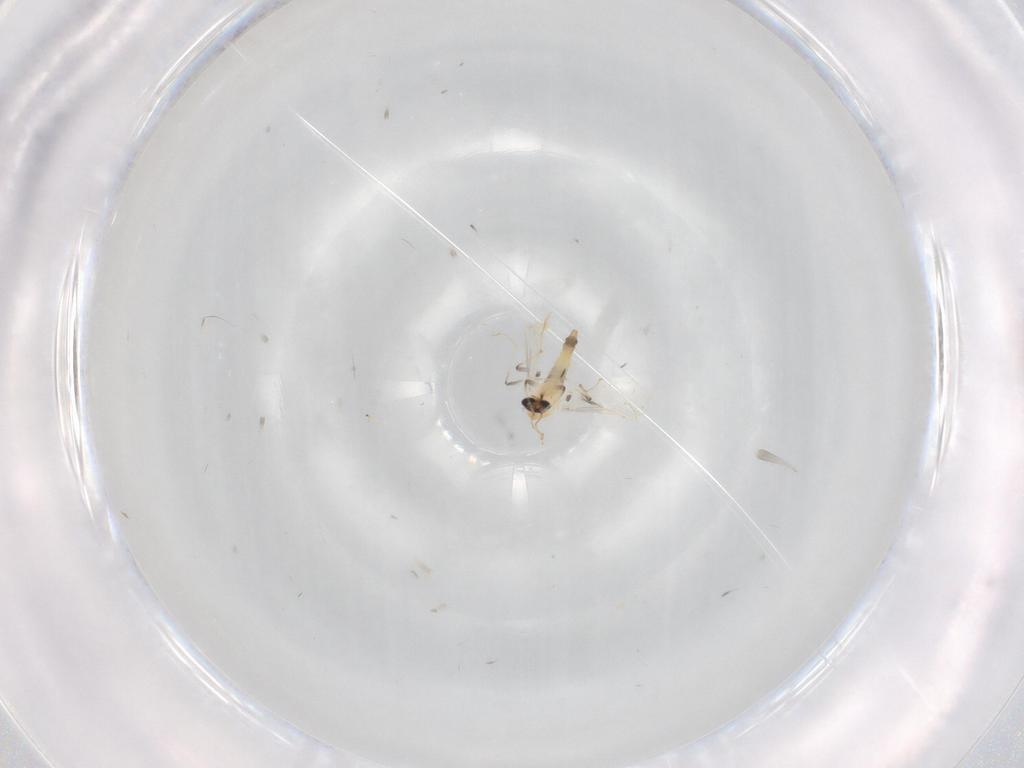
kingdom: Animalia
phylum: Arthropoda
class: Insecta
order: Diptera
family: Chironomidae
